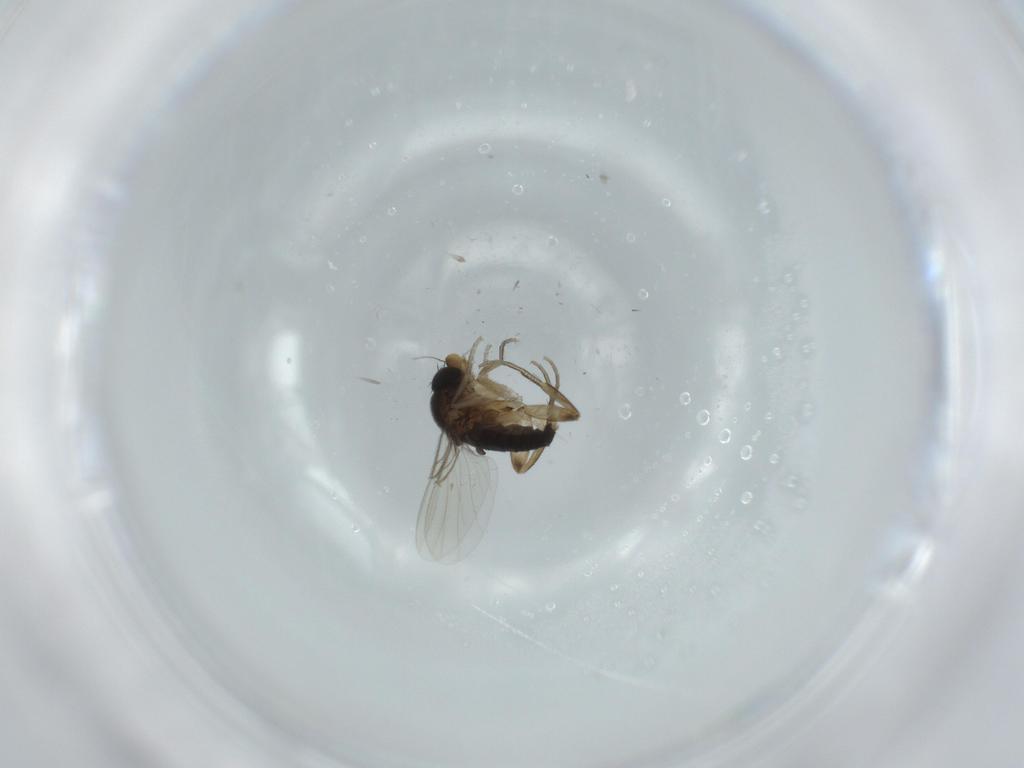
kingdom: Animalia
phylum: Arthropoda
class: Insecta
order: Diptera
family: Phoridae
